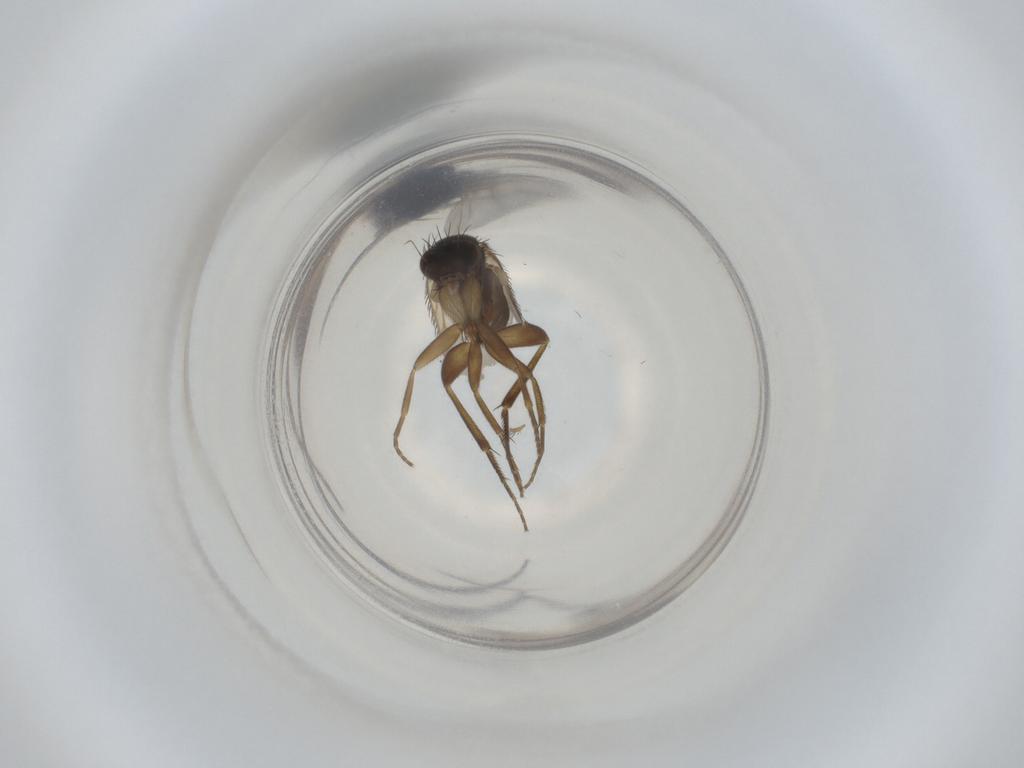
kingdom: Animalia
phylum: Arthropoda
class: Insecta
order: Diptera
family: Phoridae
